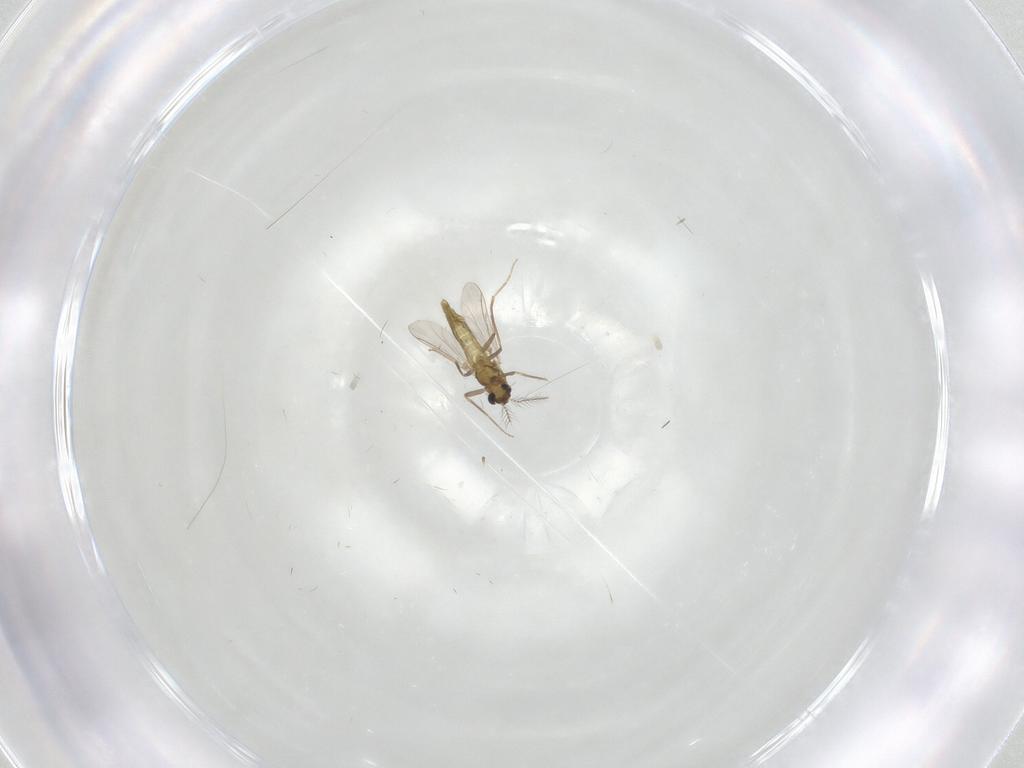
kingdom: Animalia
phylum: Arthropoda
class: Insecta
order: Diptera
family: Chironomidae
